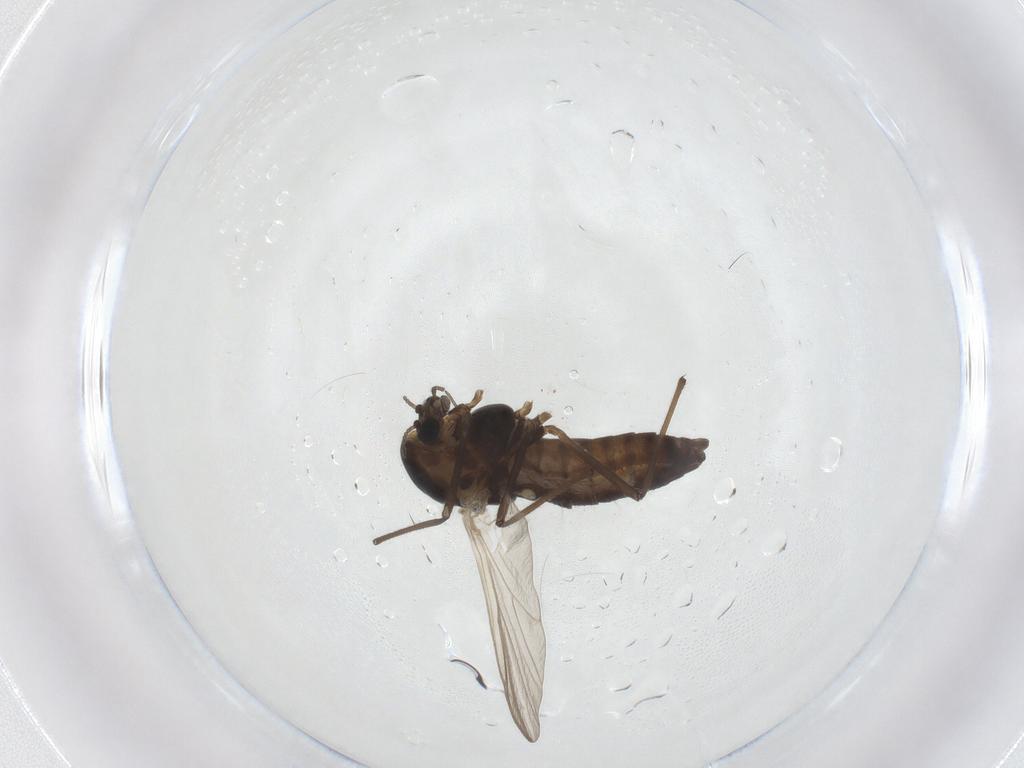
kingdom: Animalia
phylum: Arthropoda
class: Insecta
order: Diptera
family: Chironomidae
